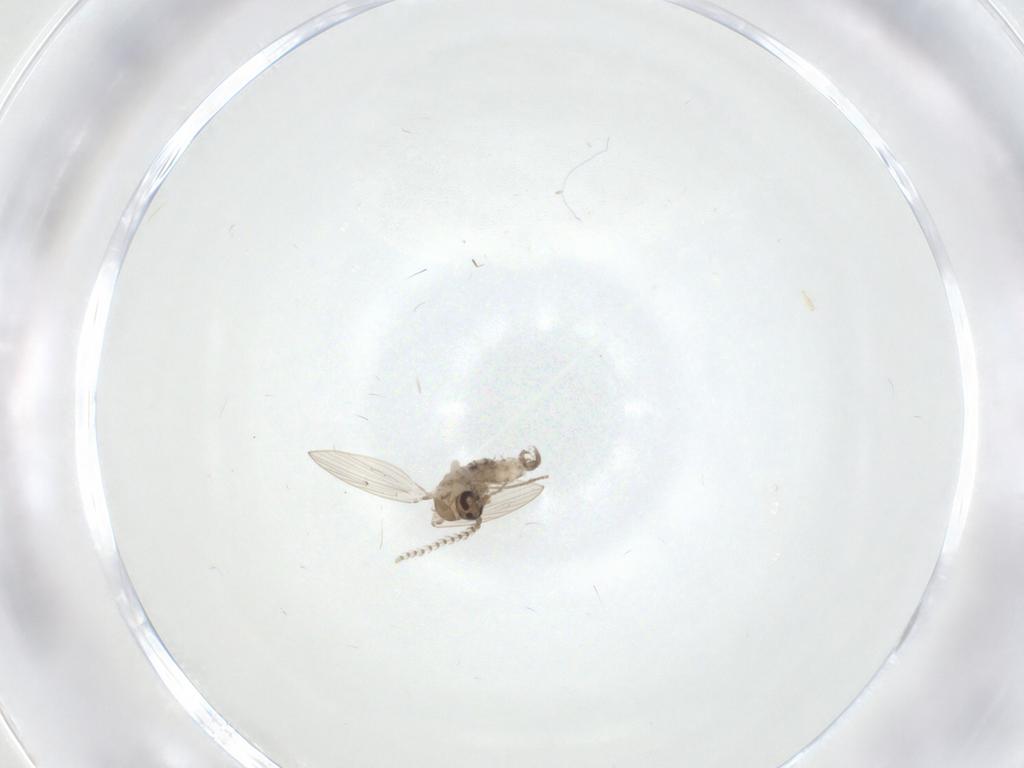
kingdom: Animalia
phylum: Arthropoda
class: Insecta
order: Diptera
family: Psychodidae
